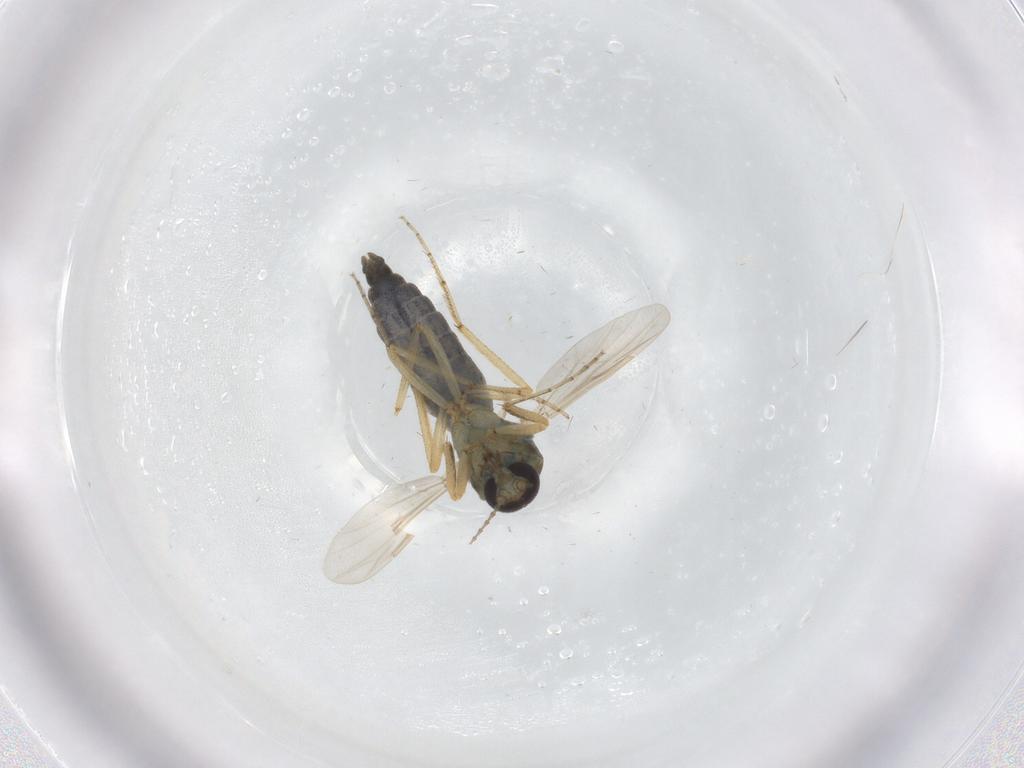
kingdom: Animalia
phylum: Arthropoda
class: Insecta
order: Diptera
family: Ceratopogonidae
